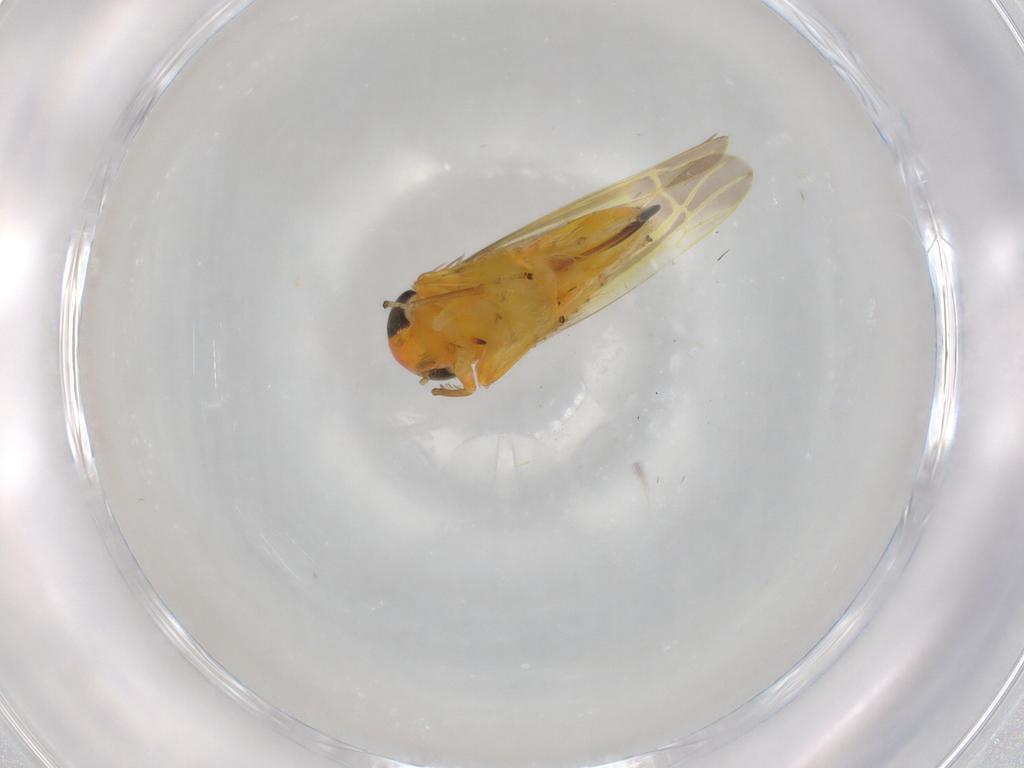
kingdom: Animalia
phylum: Arthropoda
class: Insecta
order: Hemiptera
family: Cicadellidae
